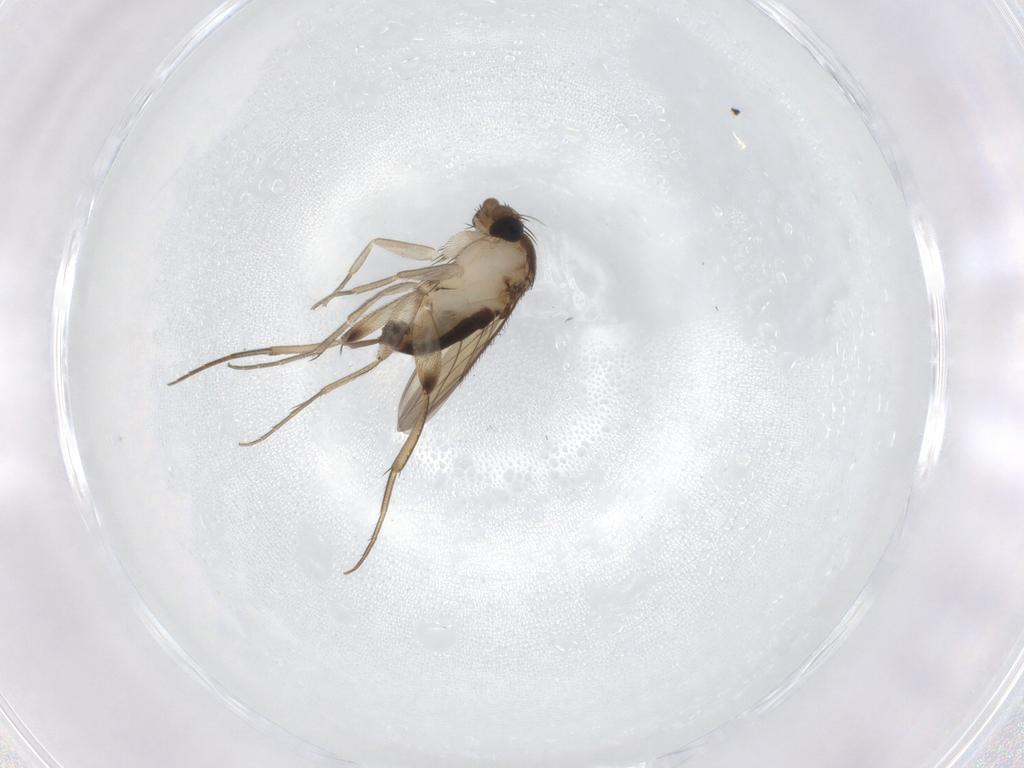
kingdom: Animalia
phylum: Arthropoda
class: Insecta
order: Diptera
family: Phoridae
